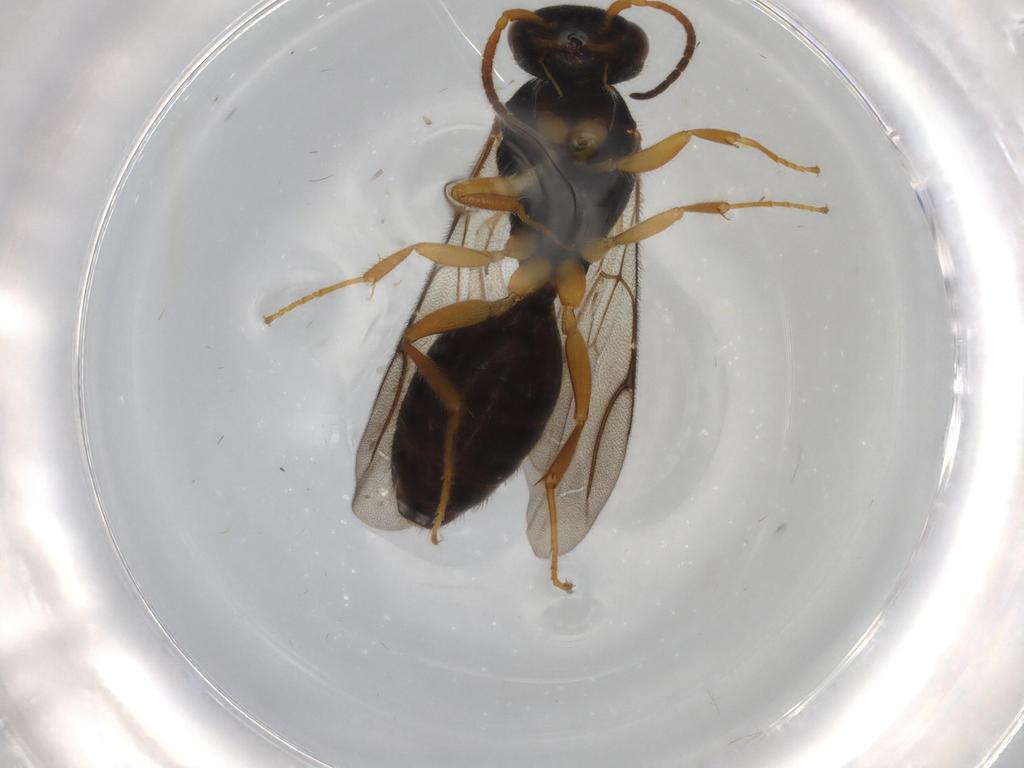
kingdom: Animalia
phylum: Arthropoda
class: Insecta
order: Hymenoptera
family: Bethylidae
